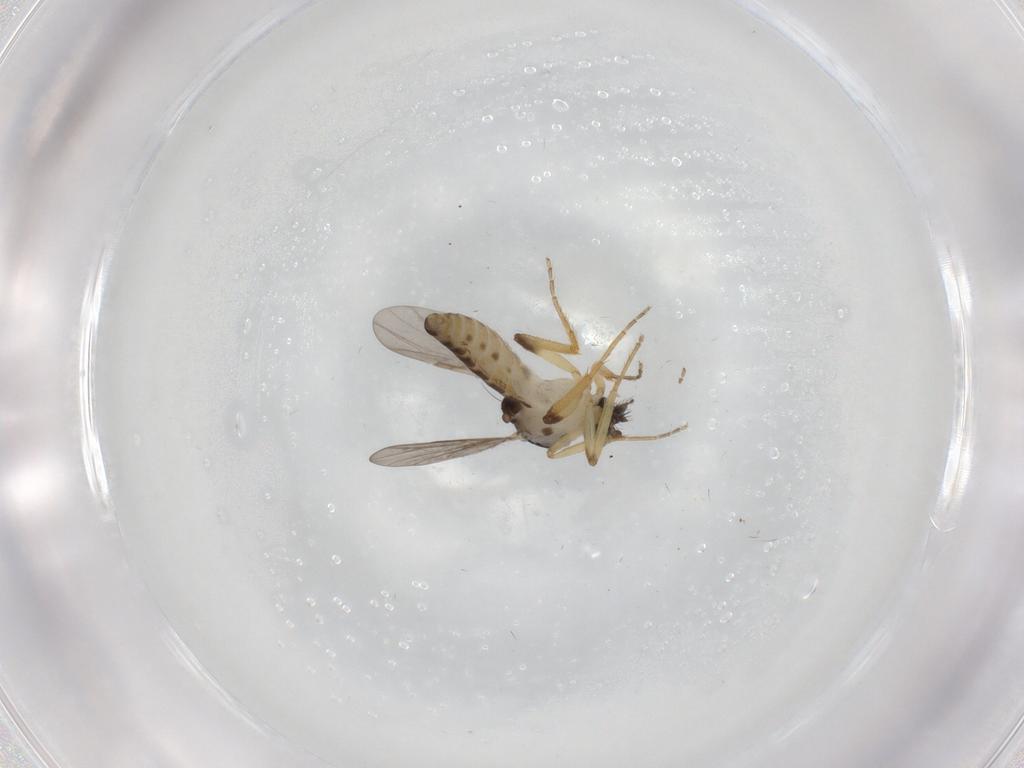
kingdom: Animalia
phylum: Arthropoda
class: Insecta
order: Diptera
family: Ceratopogonidae
